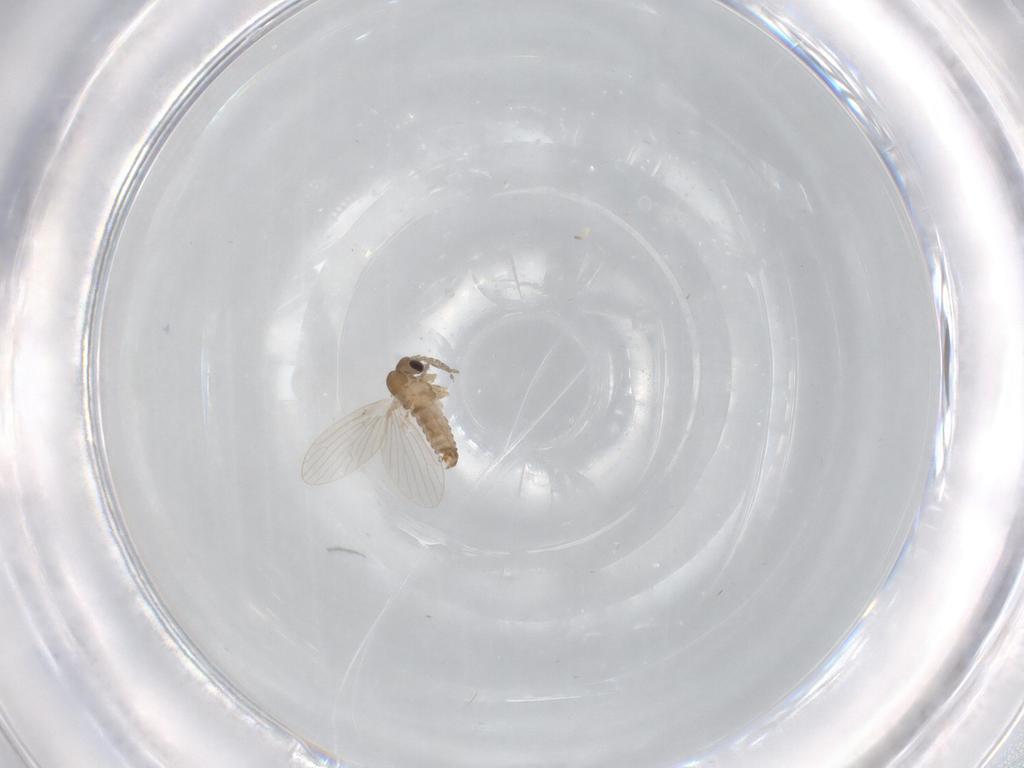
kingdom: Animalia
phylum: Arthropoda
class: Insecta
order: Diptera
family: Psychodidae
